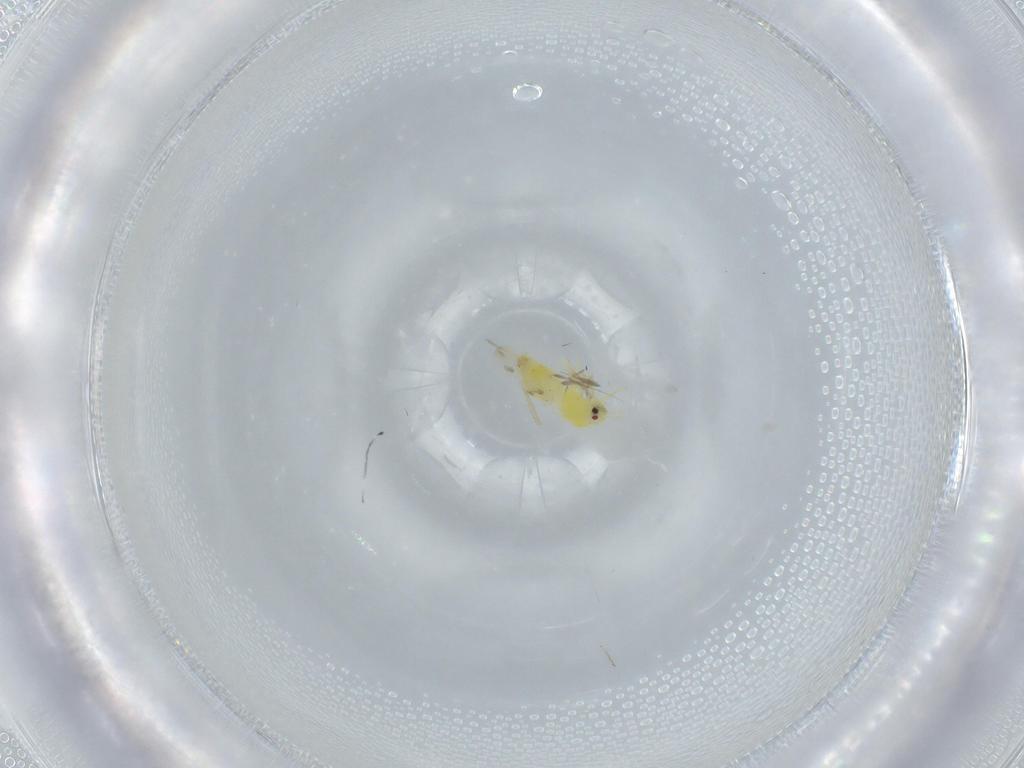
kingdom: Animalia
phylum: Arthropoda
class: Insecta
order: Hemiptera
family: Aleyrodidae
